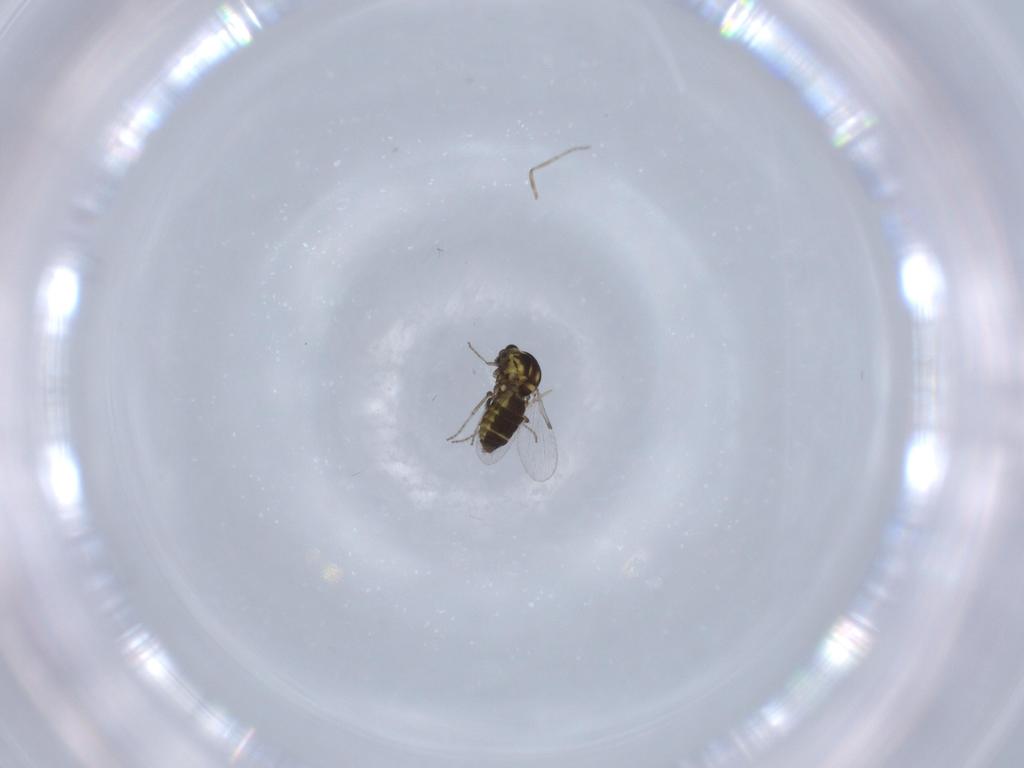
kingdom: Animalia
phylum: Arthropoda
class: Insecta
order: Diptera
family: Ceratopogonidae
